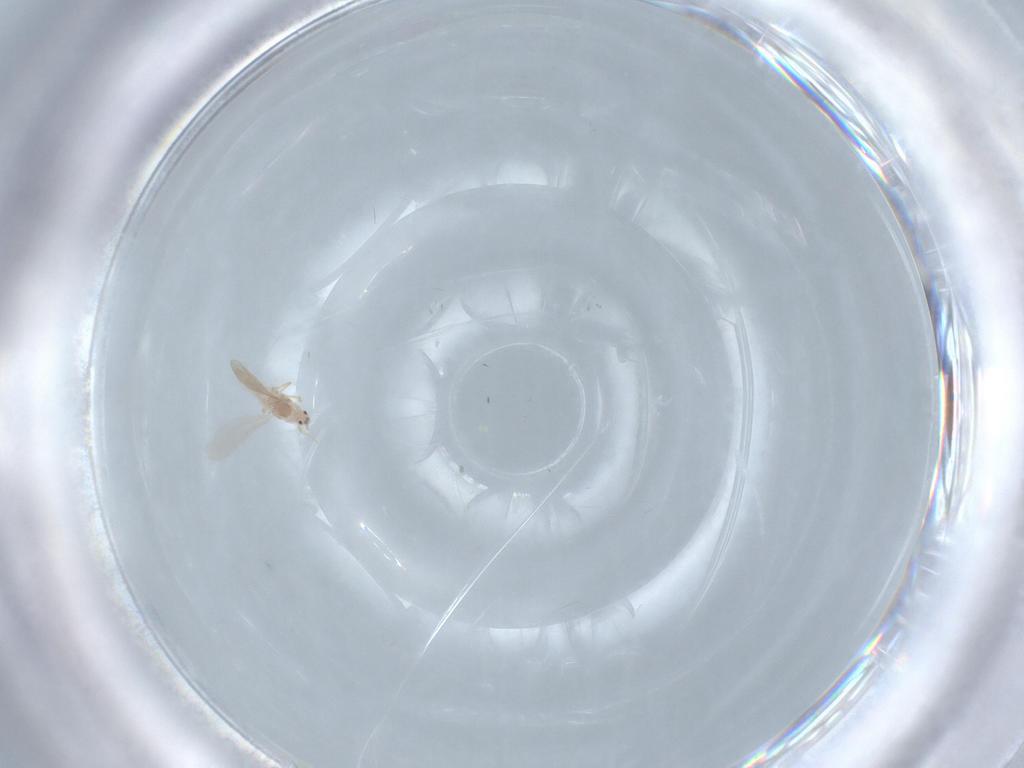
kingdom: Animalia
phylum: Arthropoda
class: Insecta
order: Hemiptera
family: Pseudococcidae
